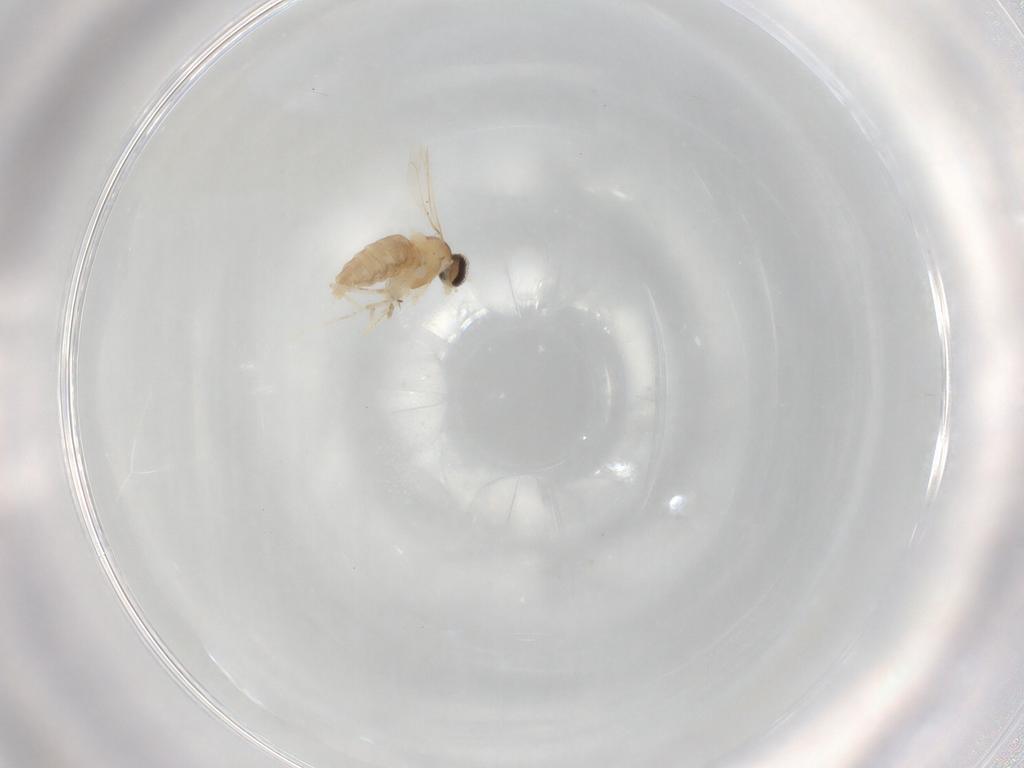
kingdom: Animalia
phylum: Arthropoda
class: Insecta
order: Diptera
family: Cecidomyiidae
